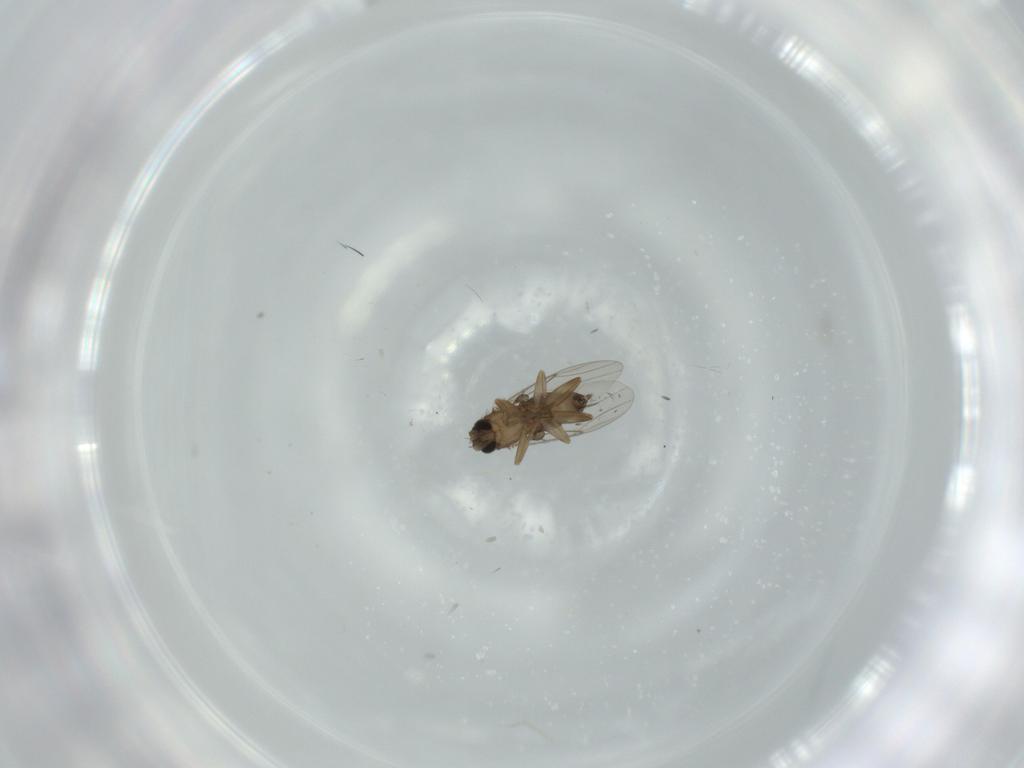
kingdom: Animalia
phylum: Arthropoda
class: Insecta
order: Diptera
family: Phoridae
